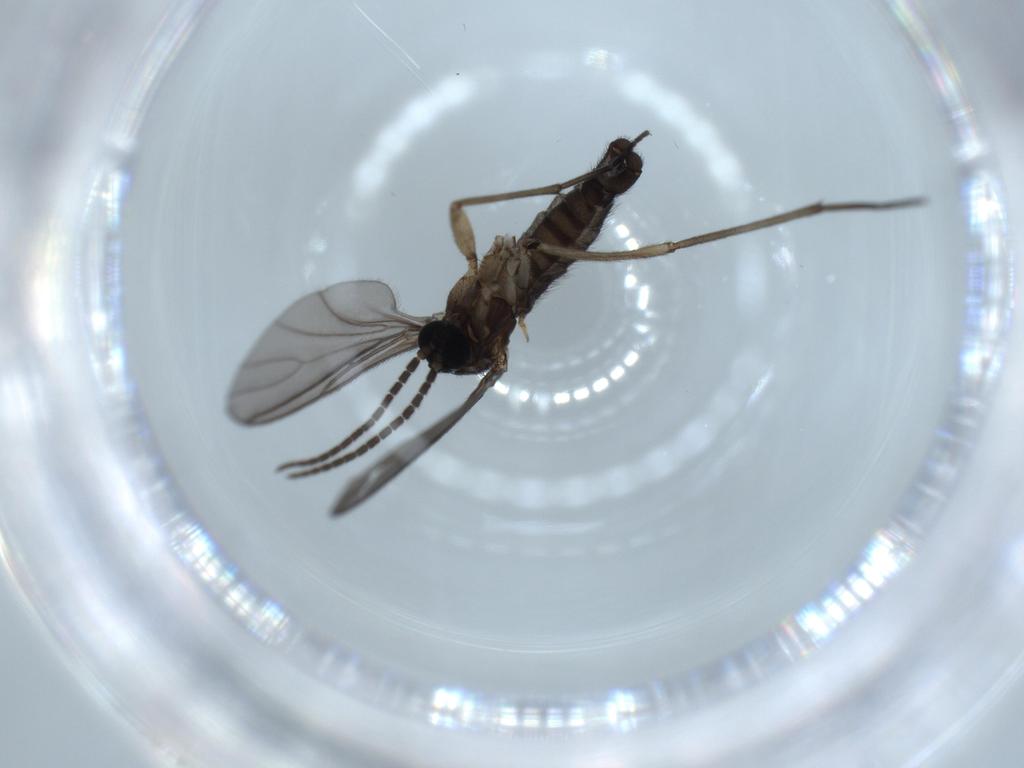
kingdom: Animalia
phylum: Arthropoda
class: Insecta
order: Diptera
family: Sciaridae
